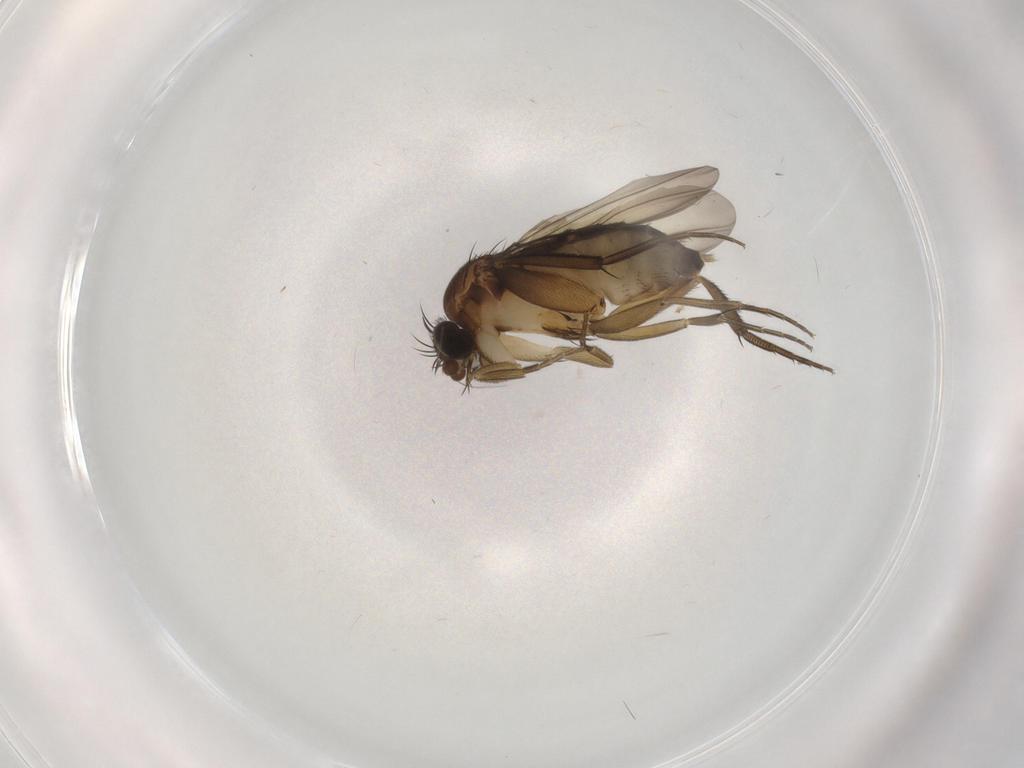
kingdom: Animalia
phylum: Arthropoda
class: Insecta
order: Diptera
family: Phoridae
